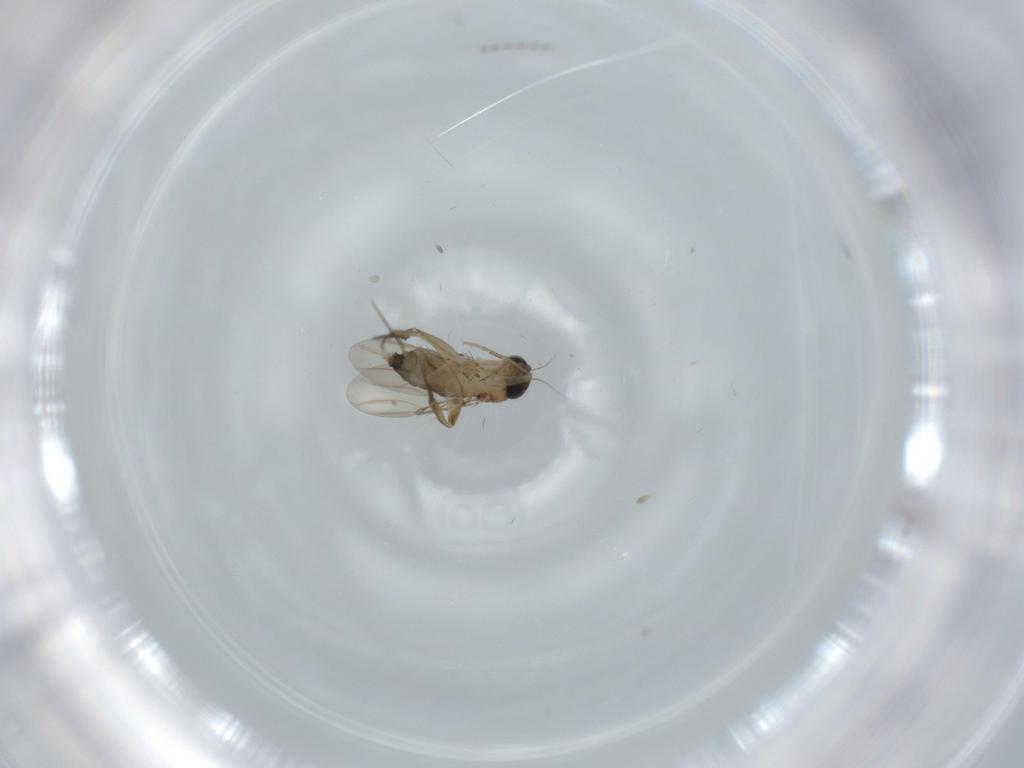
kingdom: Animalia
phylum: Arthropoda
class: Insecta
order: Diptera
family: Phoridae
